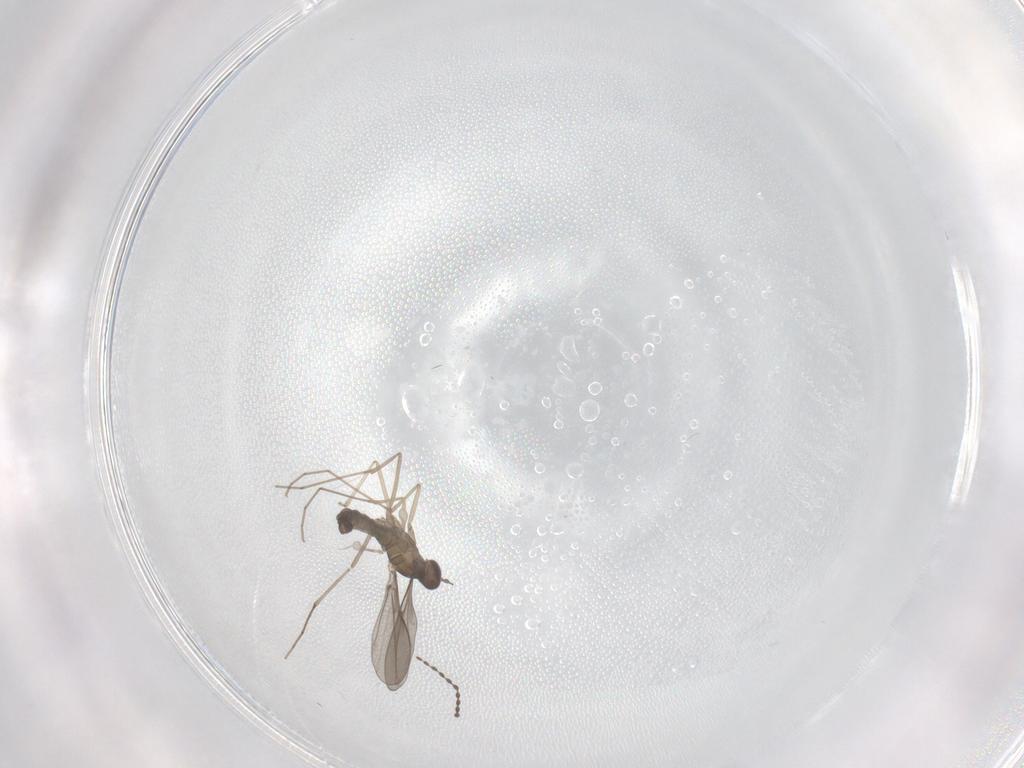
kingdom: Animalia
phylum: Arthropoda
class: Insecta
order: Diptera
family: Cecidomyiidae
